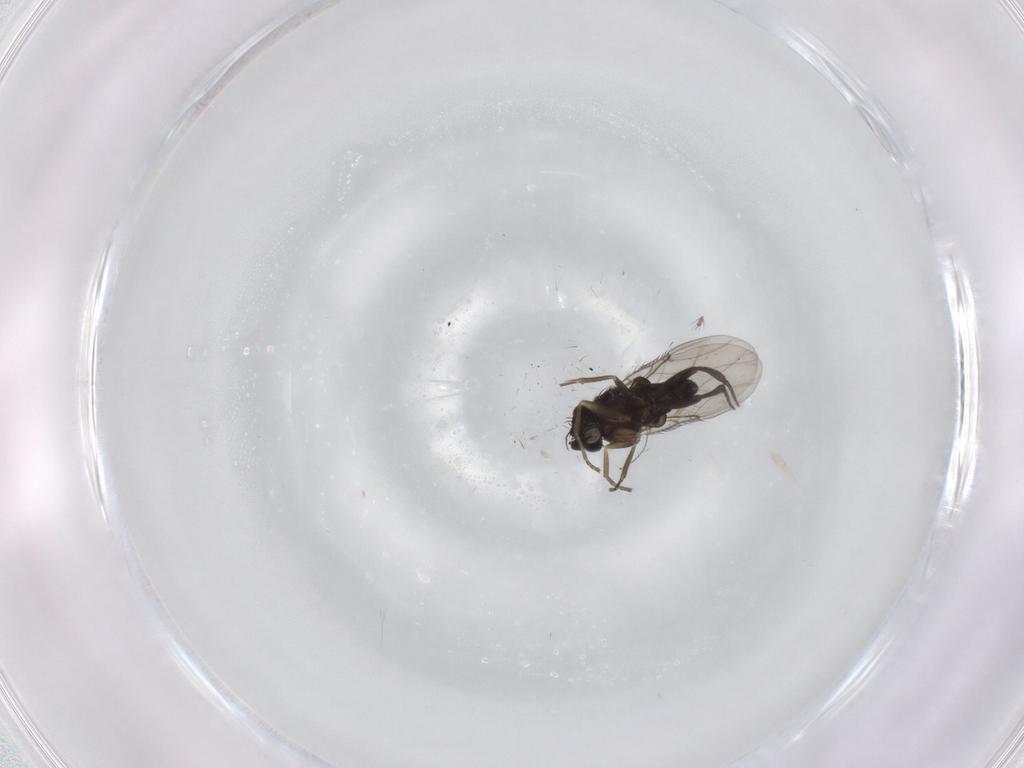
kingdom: Animalia
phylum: Arthropoda
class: Insecta
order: Diptera
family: Phoridae
